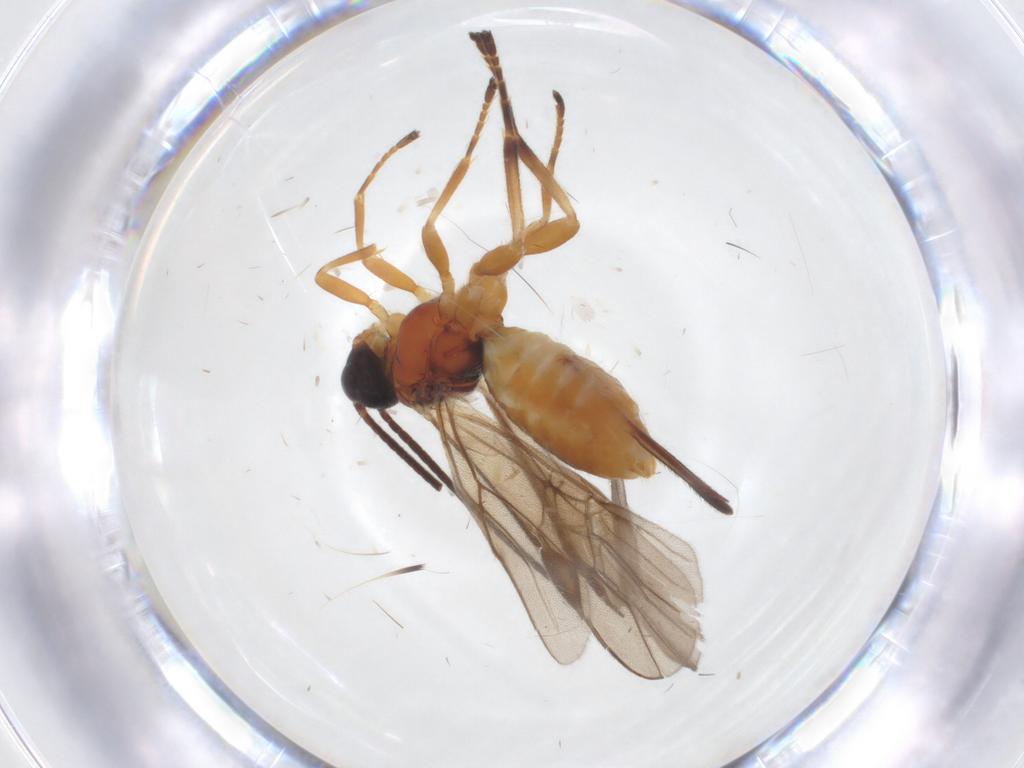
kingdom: Animalia
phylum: Arthropoda
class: Insecta
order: Hymenoptera
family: Braconidae
